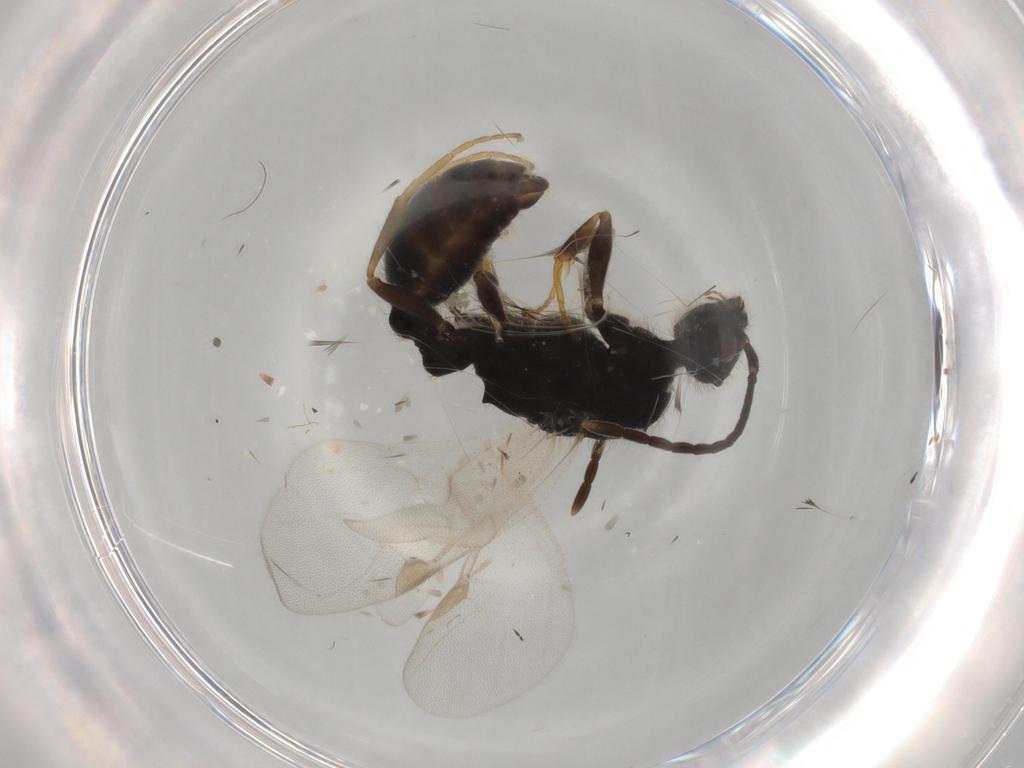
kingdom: Animalia
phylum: Arthropoda
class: Insecta
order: Hymenoptera
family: Formicidae
